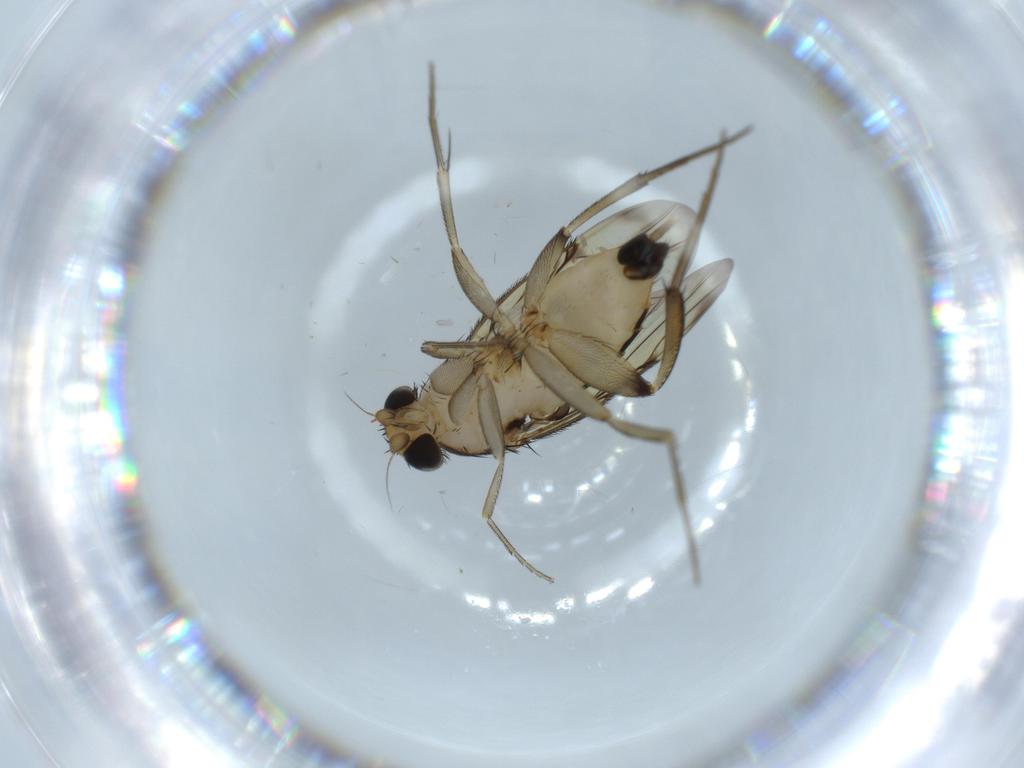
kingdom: Animalia
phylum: Arthropoda
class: Insecta
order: Diptera
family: Phoridae
